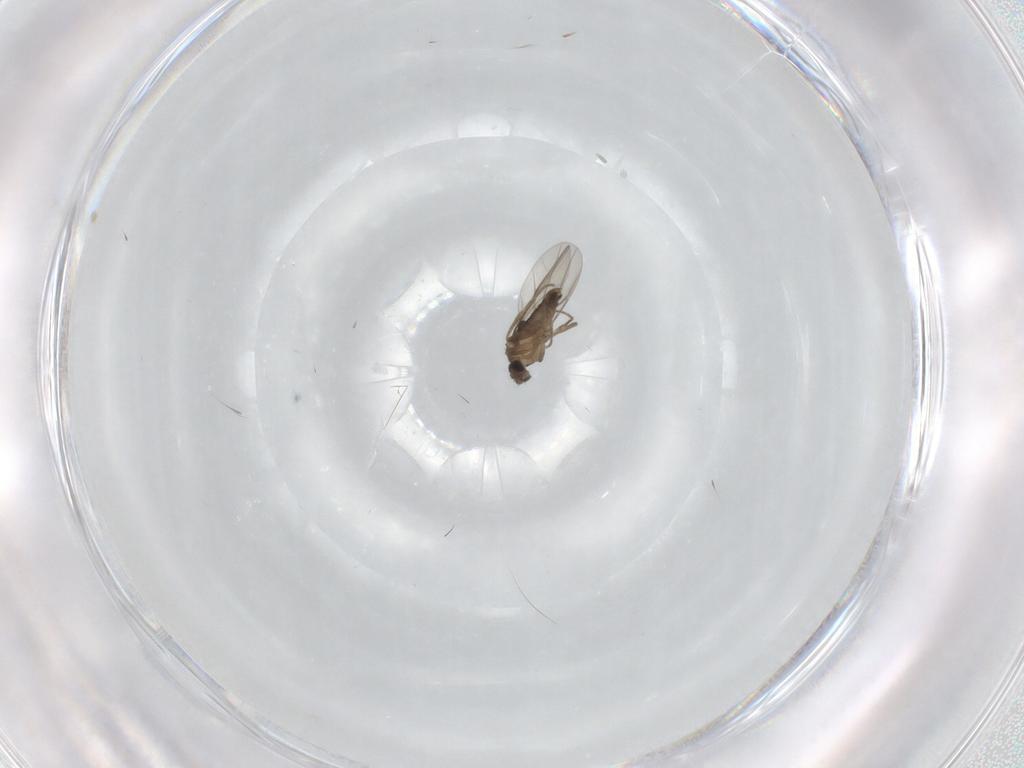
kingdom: Animalia
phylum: Arthropoda
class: Insecta
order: Diptera
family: Phoridae
